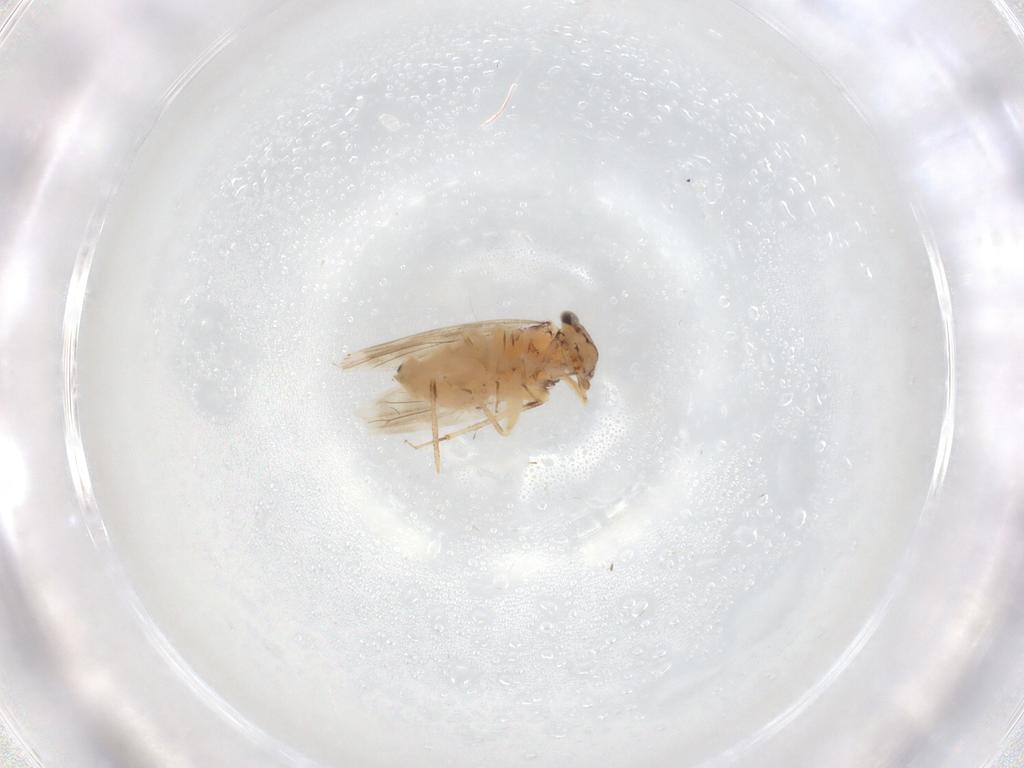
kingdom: Animalia
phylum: Arthropoda
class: Insecta
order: Psocodea
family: Lepidopsocidae
